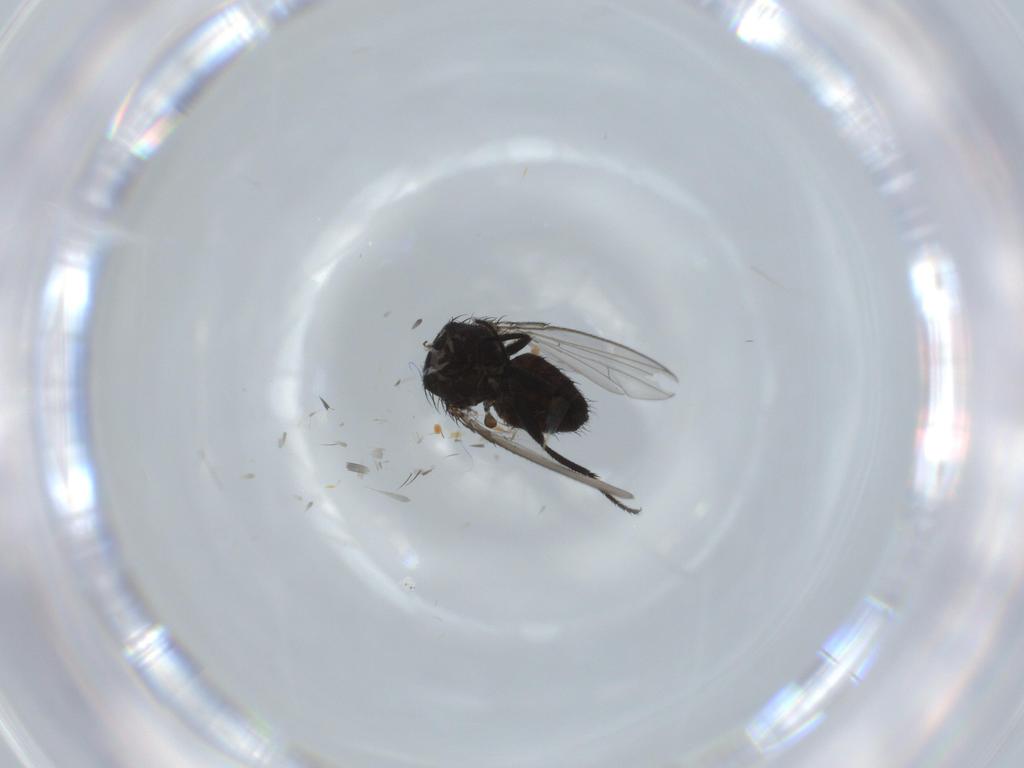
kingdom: Animalia
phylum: Arthropoda
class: Insecta
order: Diptera
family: Milichiidae
